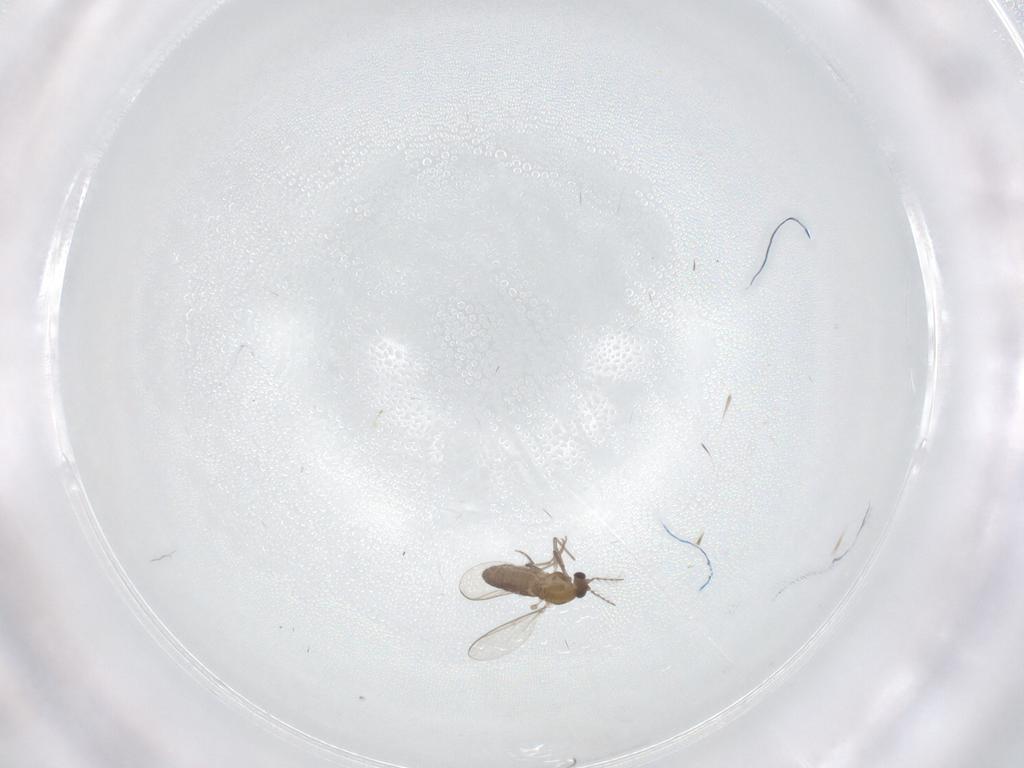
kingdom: Animalia
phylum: Arthropoda
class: Insecta
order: Diptera
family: Chironomidae
